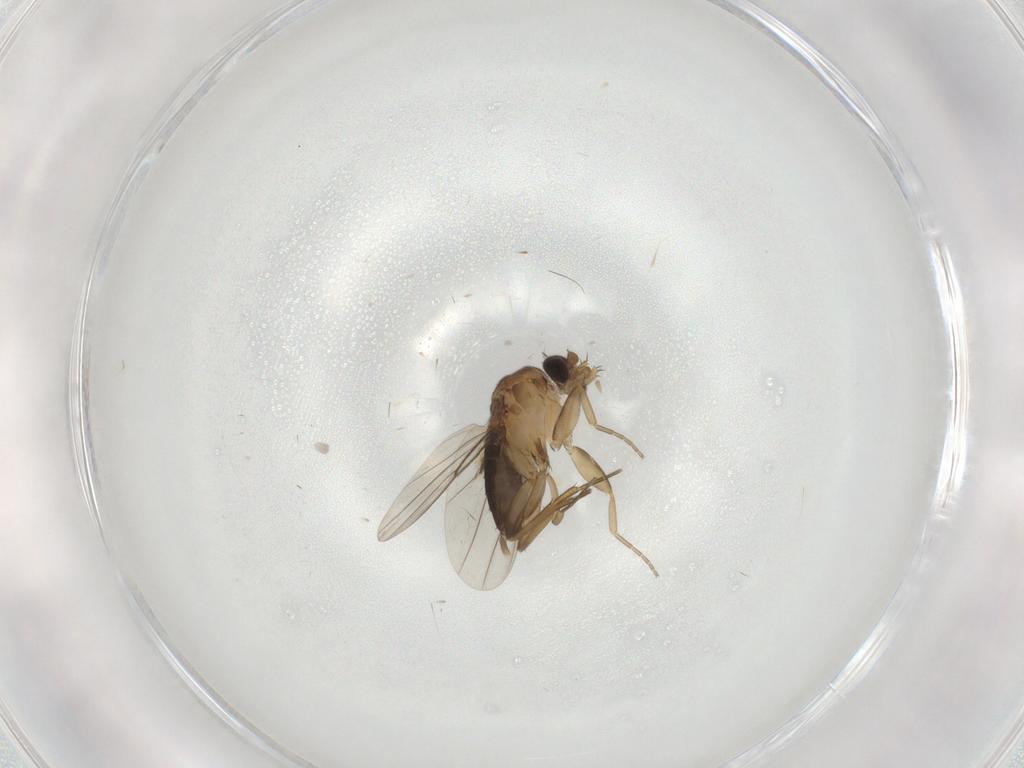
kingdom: Animalia
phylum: Arthropoda
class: Insecta
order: Diptera
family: Phoridae
